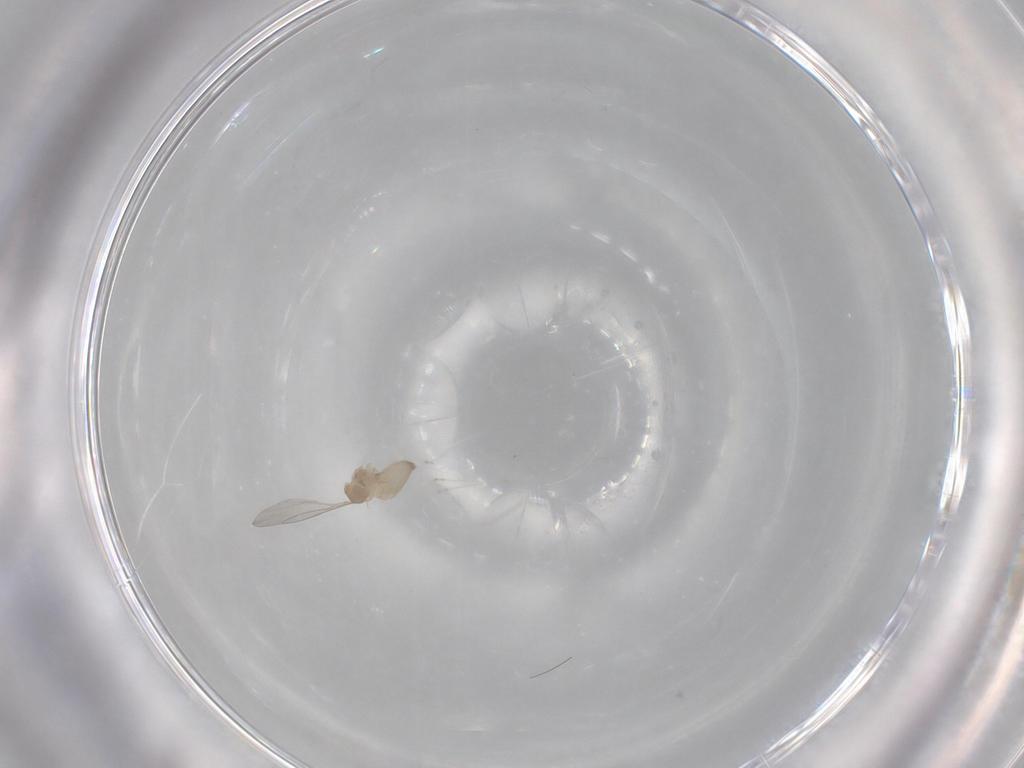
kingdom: Animalia
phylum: Arthropoda
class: Insecta
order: Diptera
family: Cecidomyiidae
